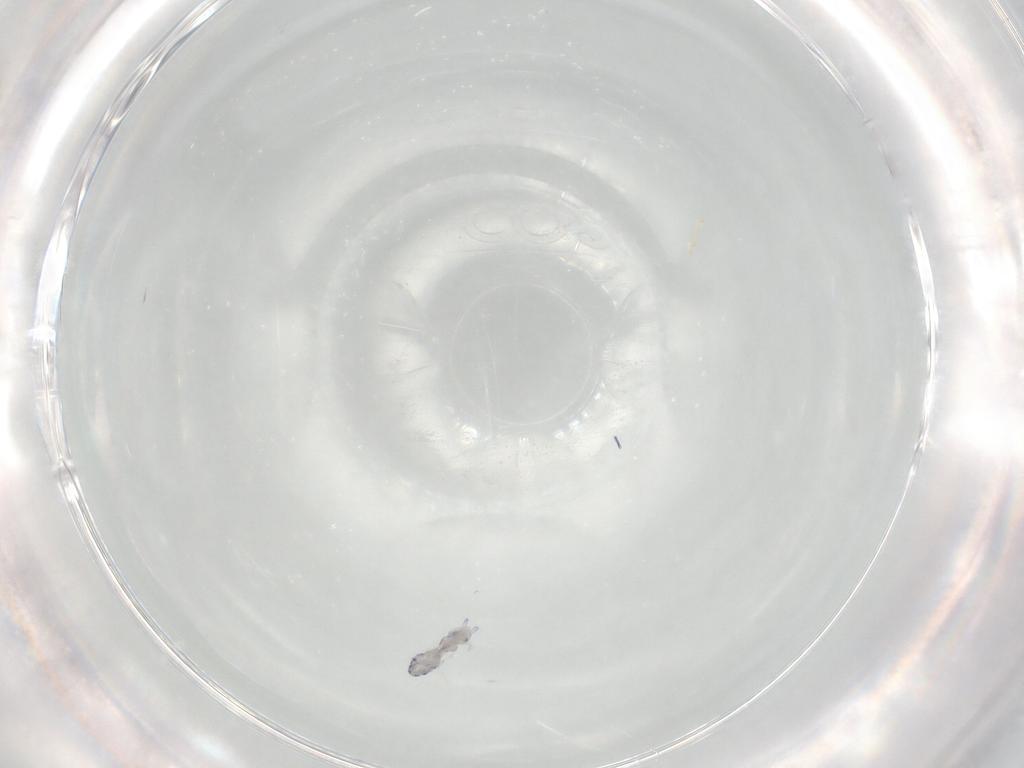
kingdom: Animalia
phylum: Arthropoda
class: Collembola
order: Entomobryomorpha
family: Entomobryidae
